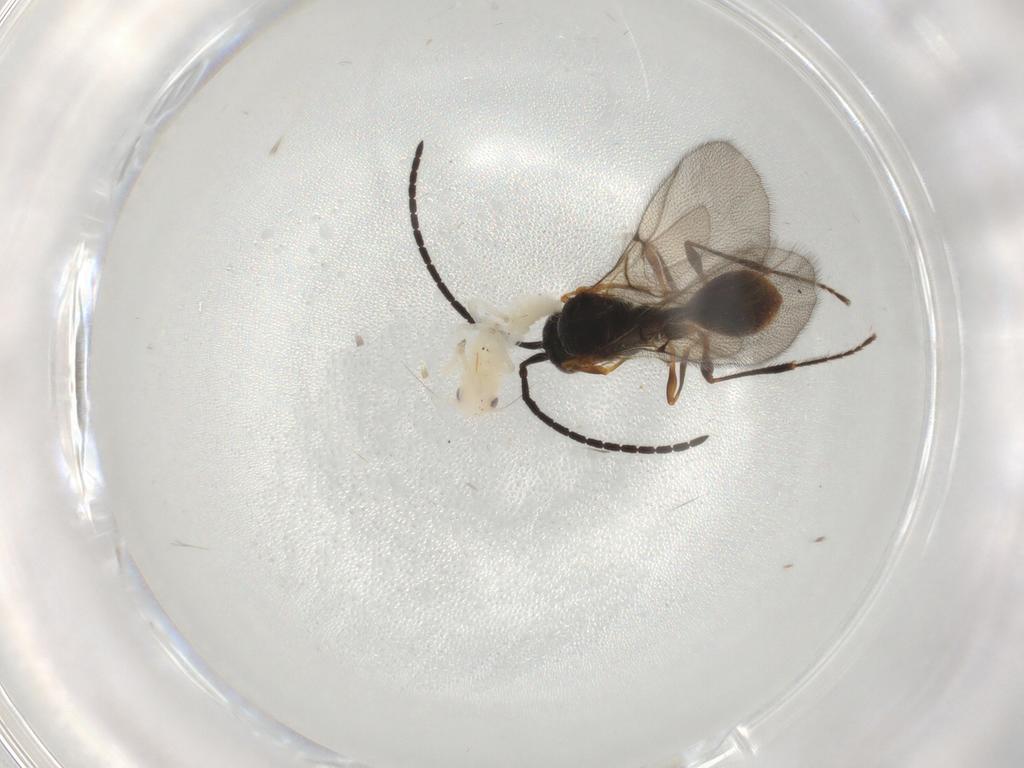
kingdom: Animalia
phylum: Arthropoda
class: Insecta
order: Hemiptera
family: Cicadellidae
